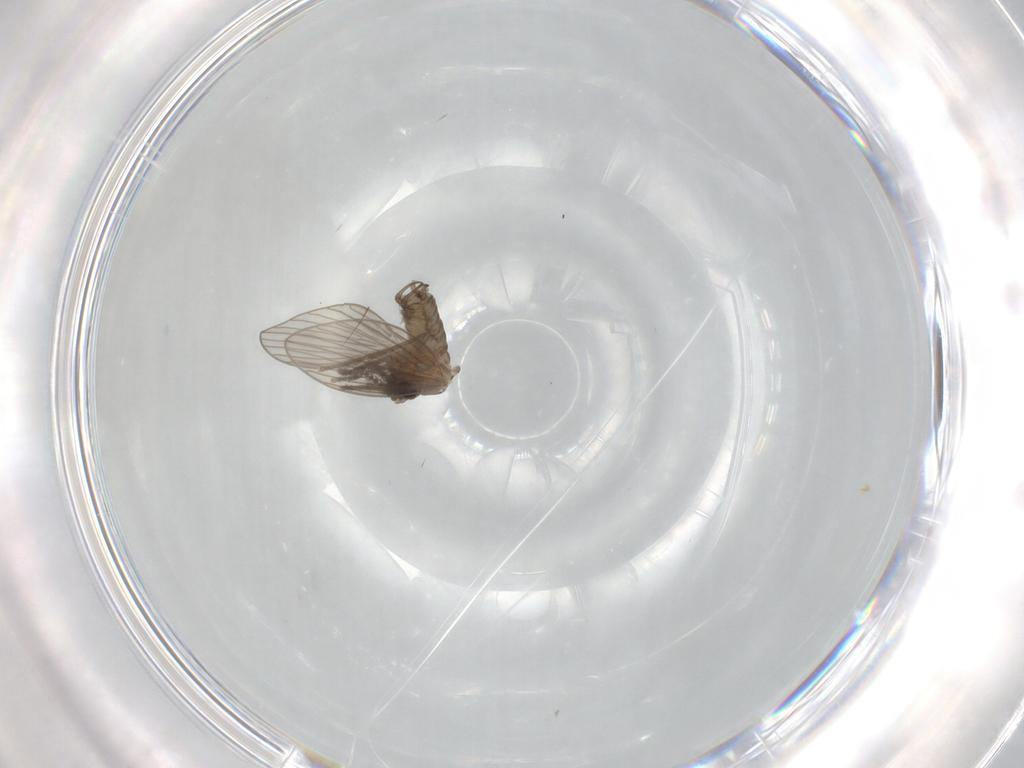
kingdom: Animalia
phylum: Arthropoda
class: Insecta
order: Diptera
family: Psychodidae
